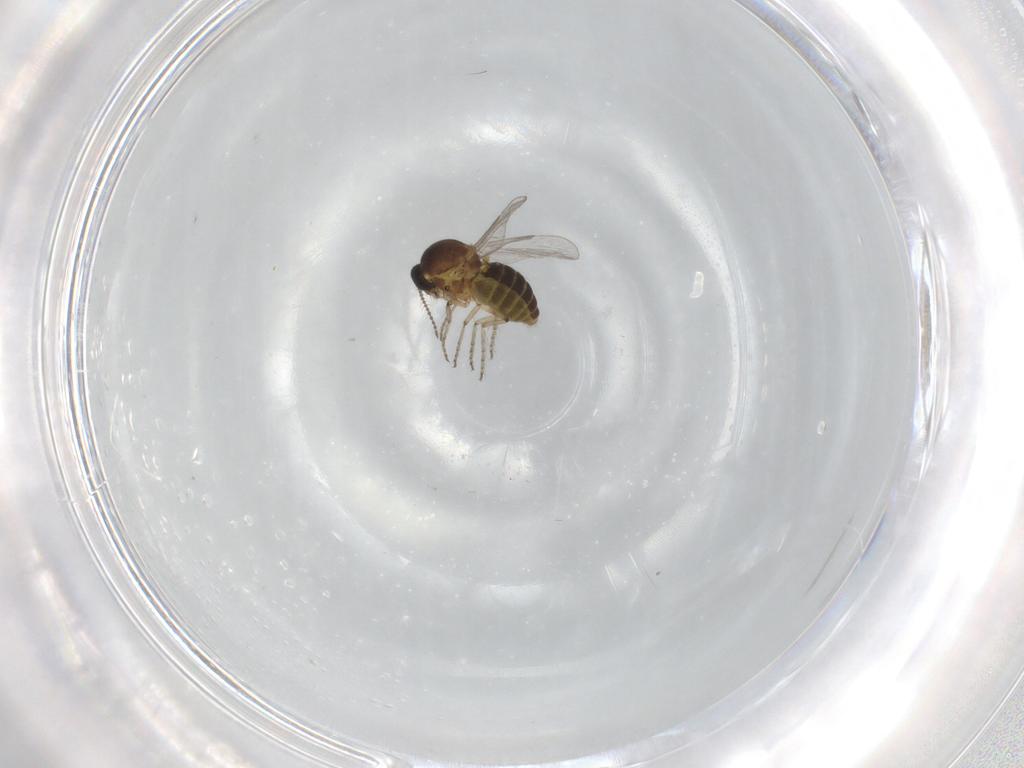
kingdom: Animalia
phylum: Arthropoda
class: Insecta
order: Diptera
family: Ceratopogonidae
